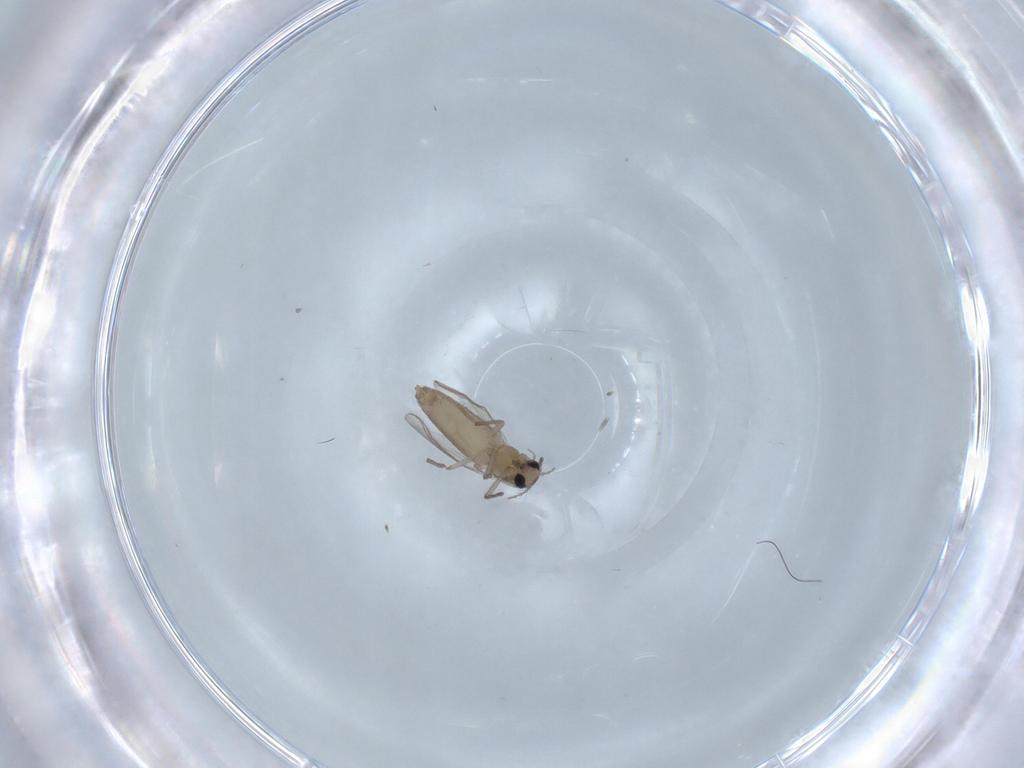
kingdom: Animalia
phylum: Arthropoda
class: Insecta
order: Diptera
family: Chironomidae
